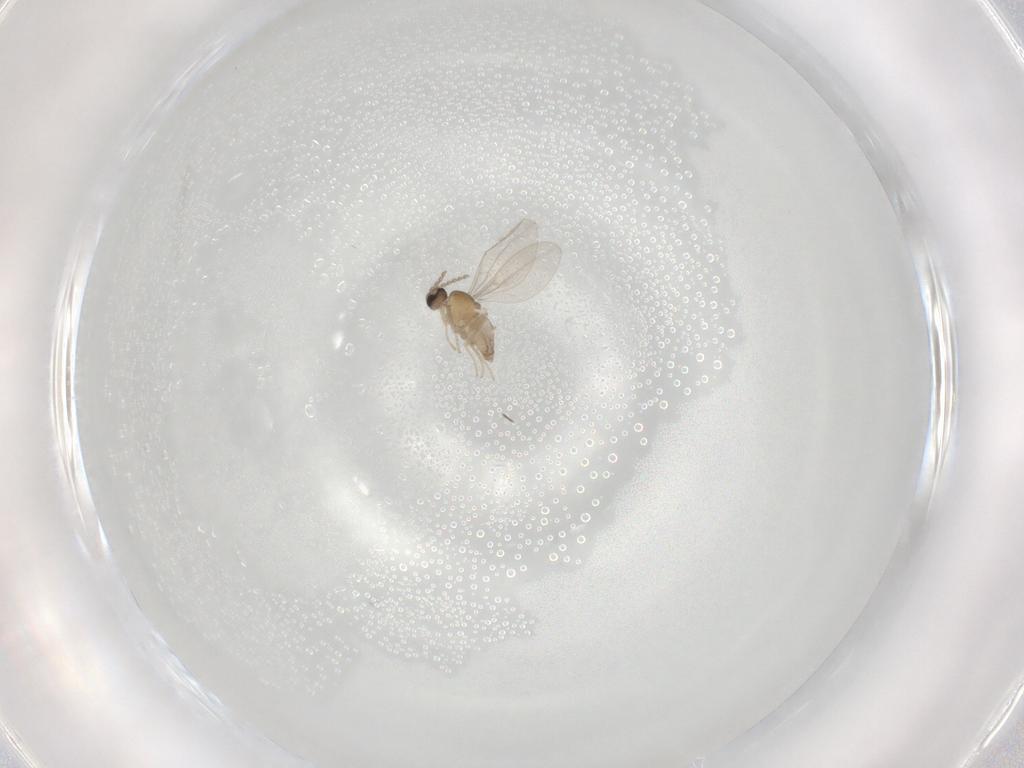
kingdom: Animalia
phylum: Arthropoda
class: Insecta
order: Diptera
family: Cecidomyiidae
